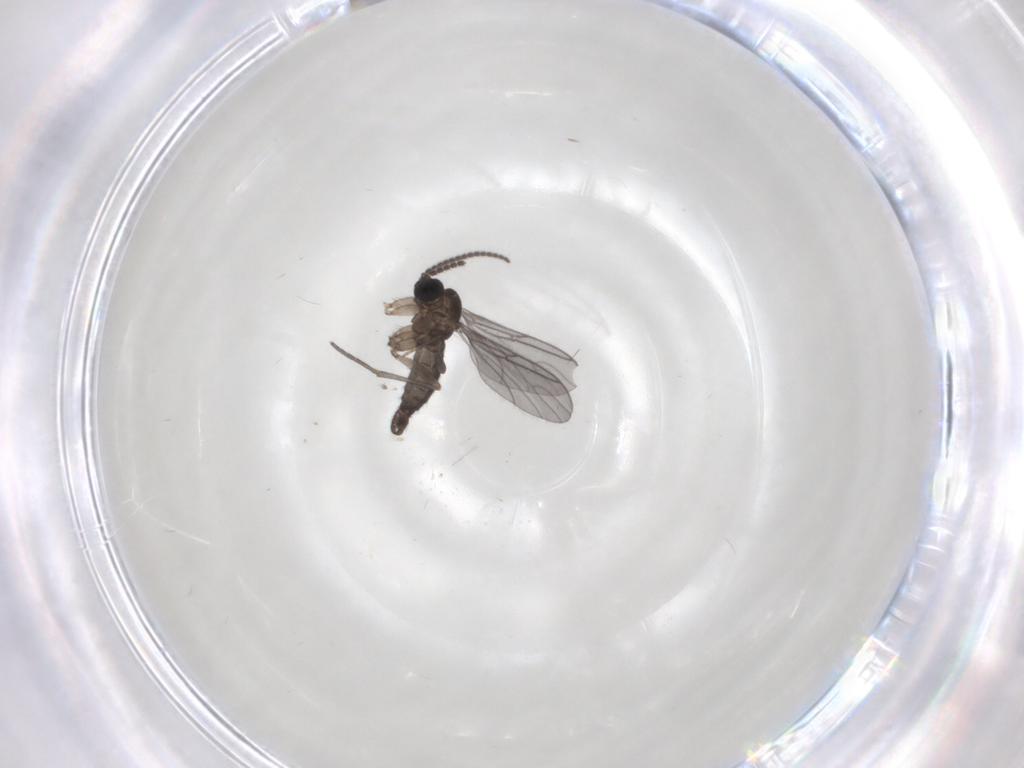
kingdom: Animalia
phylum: Arthropoda
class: Insecta
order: Diptera
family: Sciaridae
